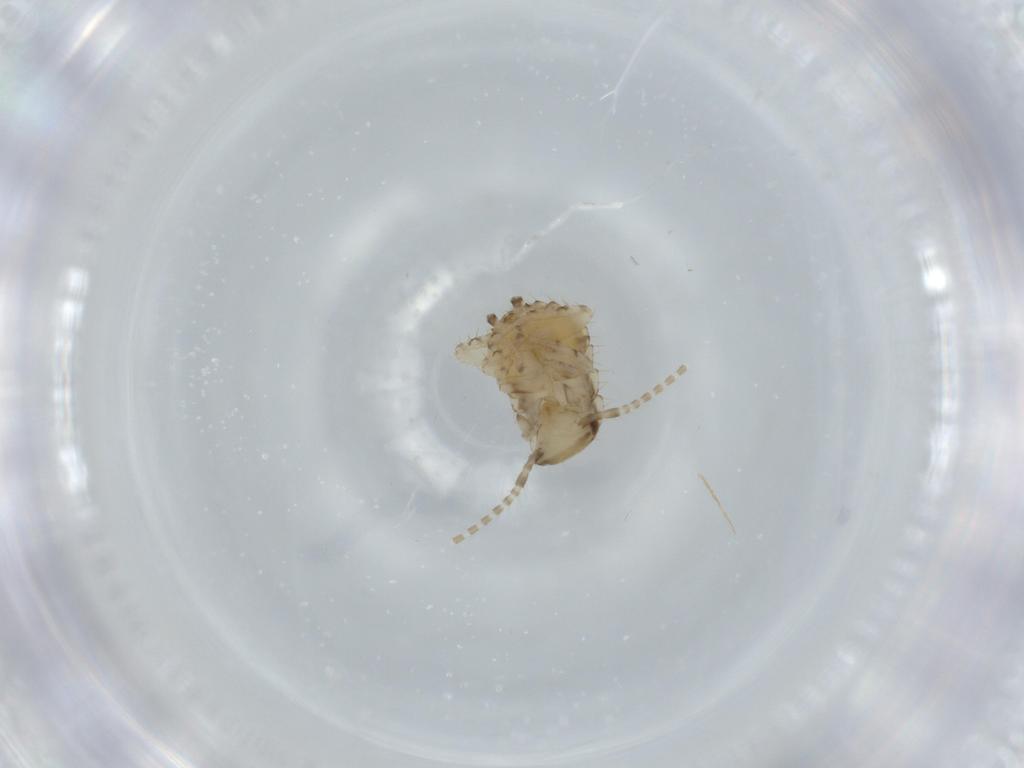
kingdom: Animalia
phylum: Arthropoda
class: Insecta
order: Blattodea
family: Ectobiidae
